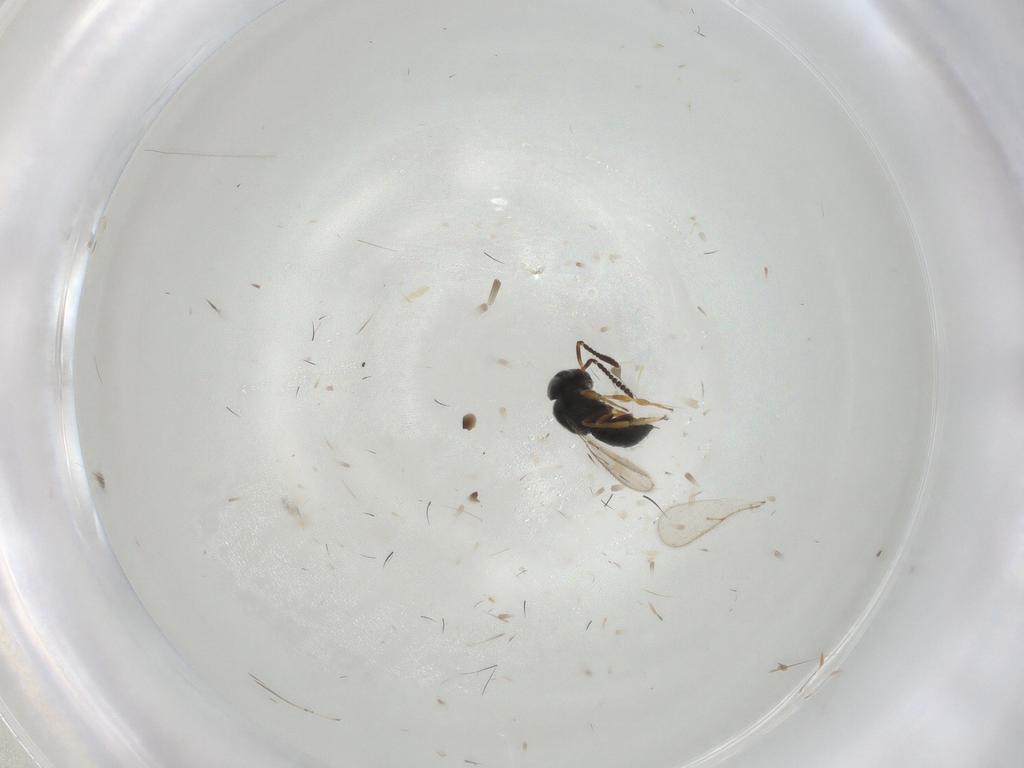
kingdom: Animalia
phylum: Arthropoda
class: Insecta
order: Hymenoptera
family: Scelionidae
